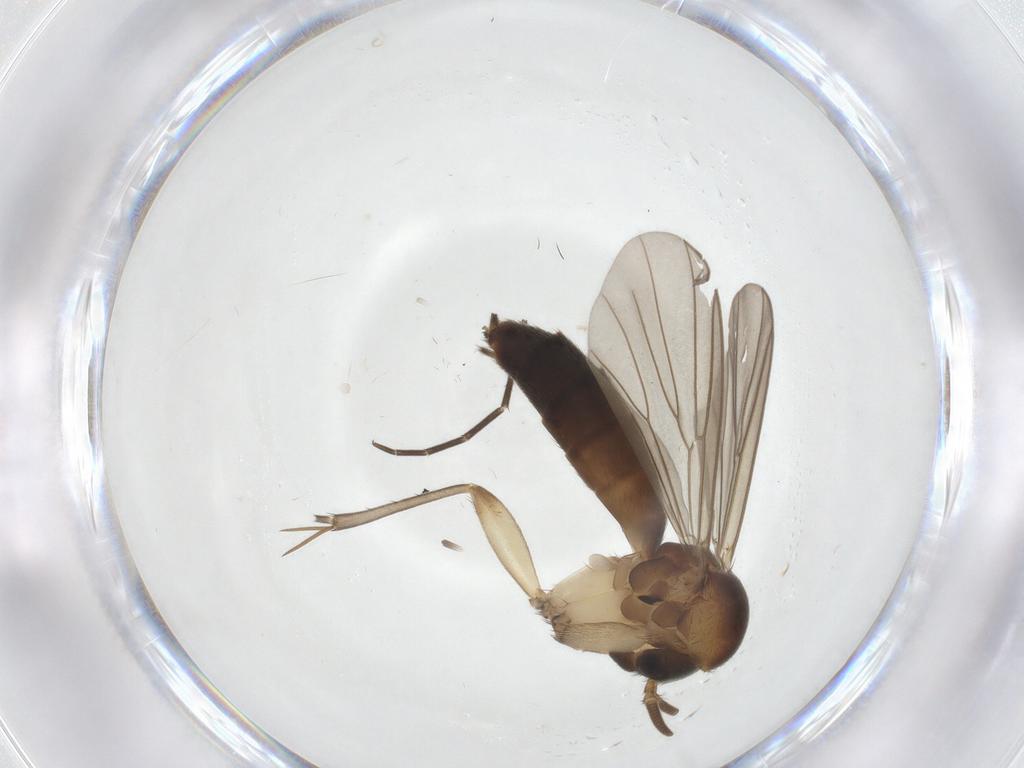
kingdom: Animalia
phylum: Arthropoda
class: Insecta
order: Diptera
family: Mycetophilidae
